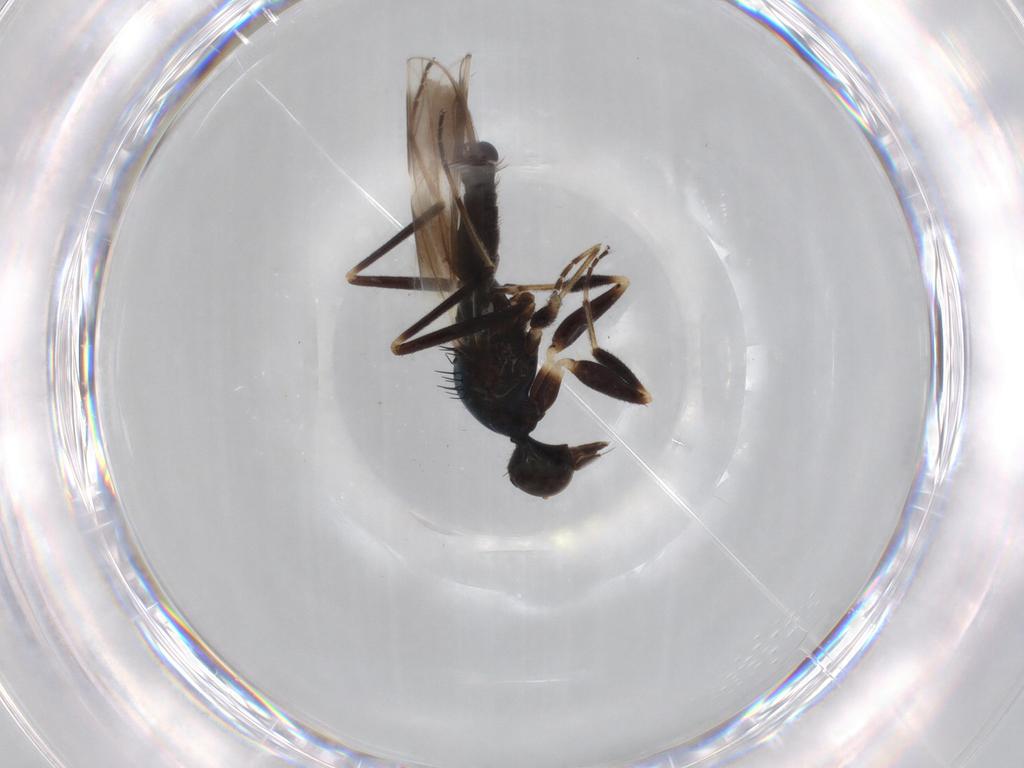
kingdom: Animalia
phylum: Arthropoda
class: Insecta
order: Diptera
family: Hybotidae
